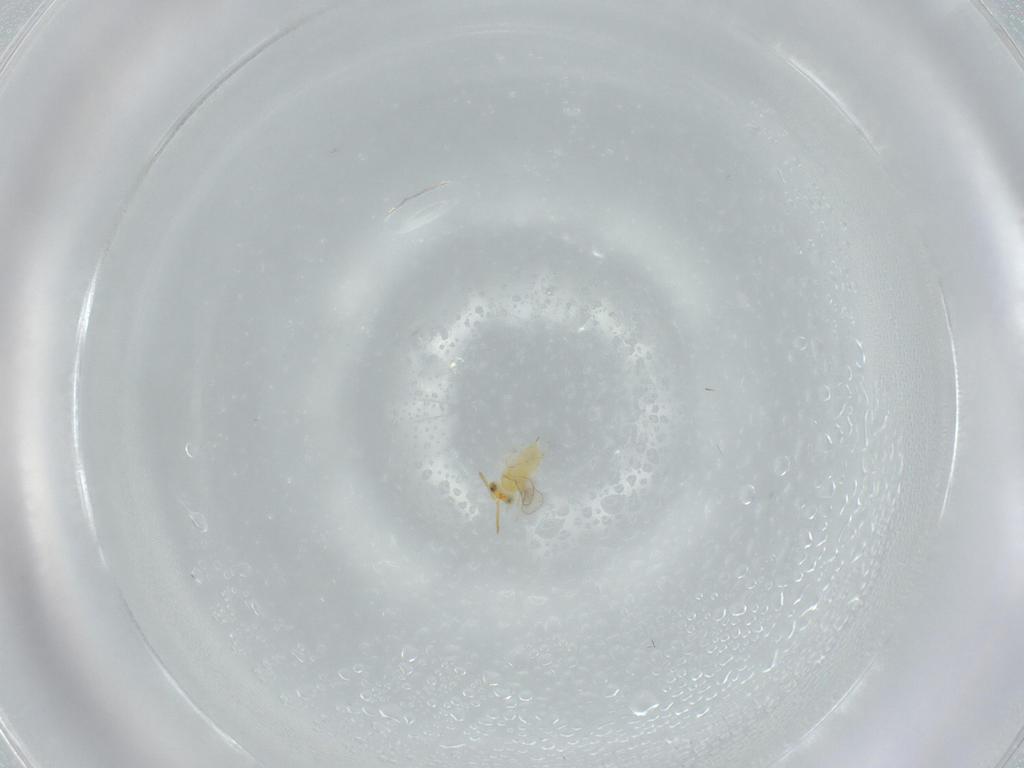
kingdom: Animalia
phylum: Arthropoda
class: Insecta
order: Hymenoptera
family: Aphelinidae
